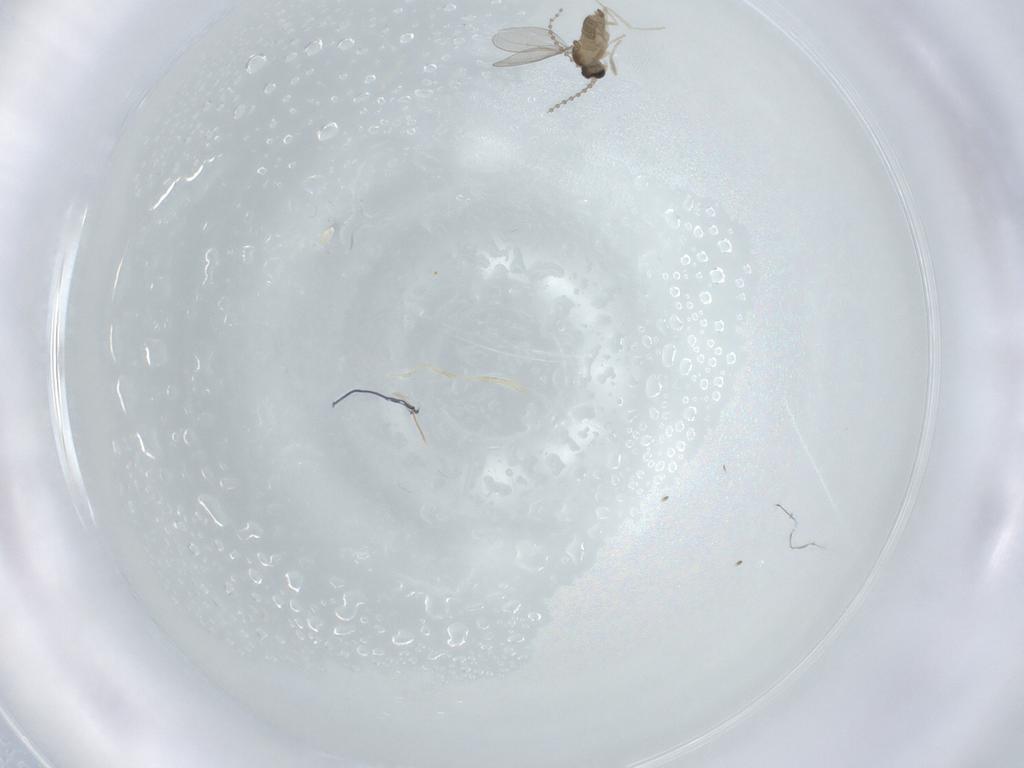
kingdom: Animalia
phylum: Arthropoda
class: Insecta
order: Diptera
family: Cecidomyiidae
